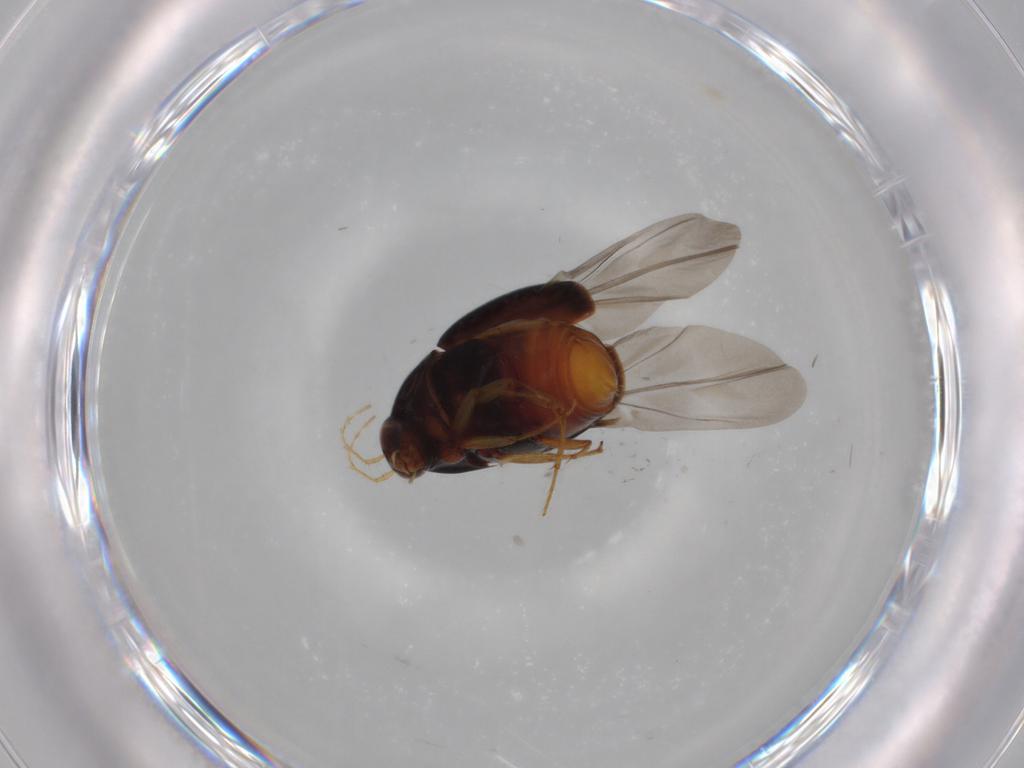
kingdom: Animalia
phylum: Arthropoda
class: Insecta
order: Coleoptera
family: Staphylinidae
